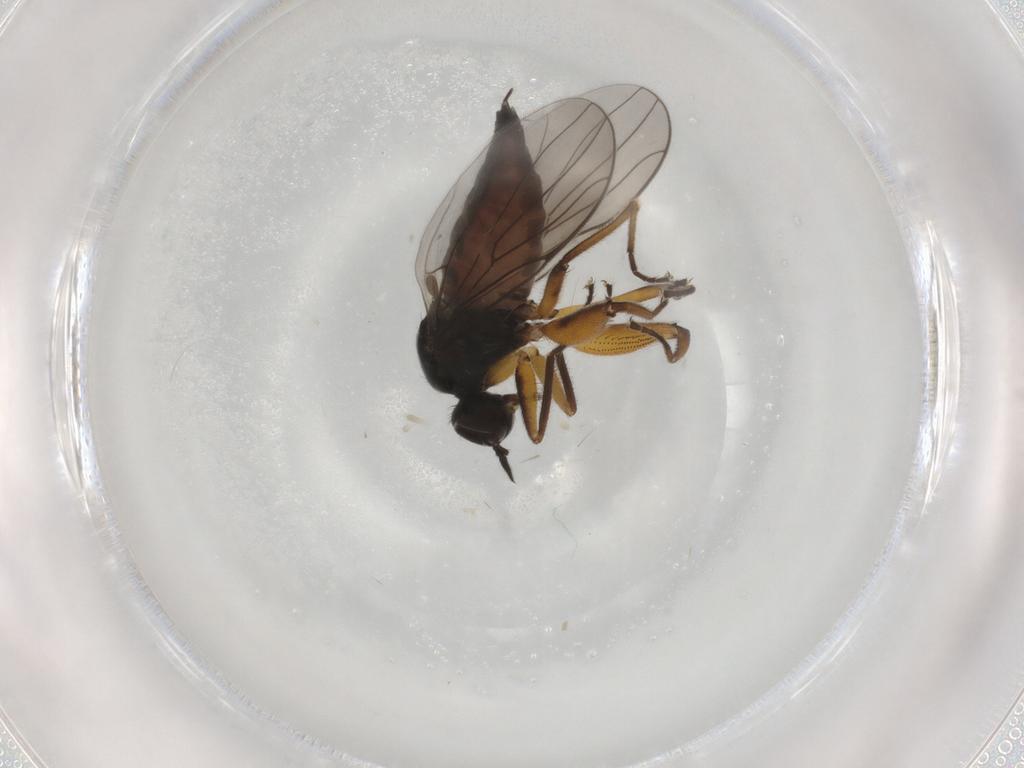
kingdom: Animalia
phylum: Arthropoda
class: Insecta
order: Diptera
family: Hybotidae
